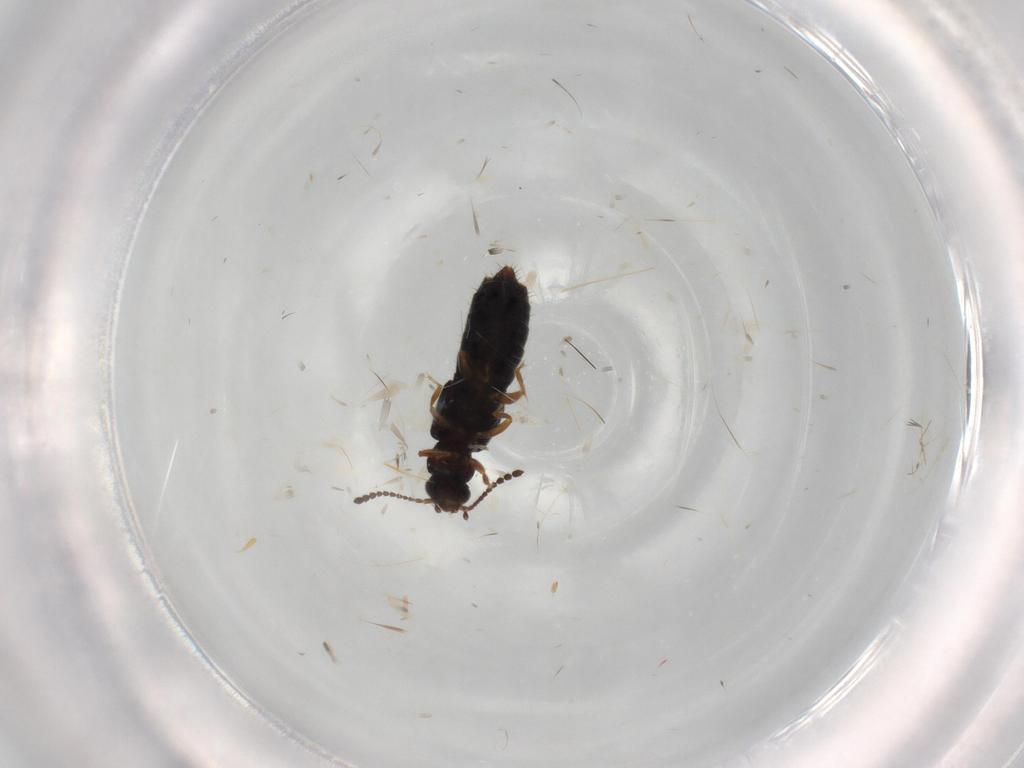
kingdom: Animalia
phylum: Arthropoda
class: Insecta
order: Coleoptera
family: Staphylinidae
